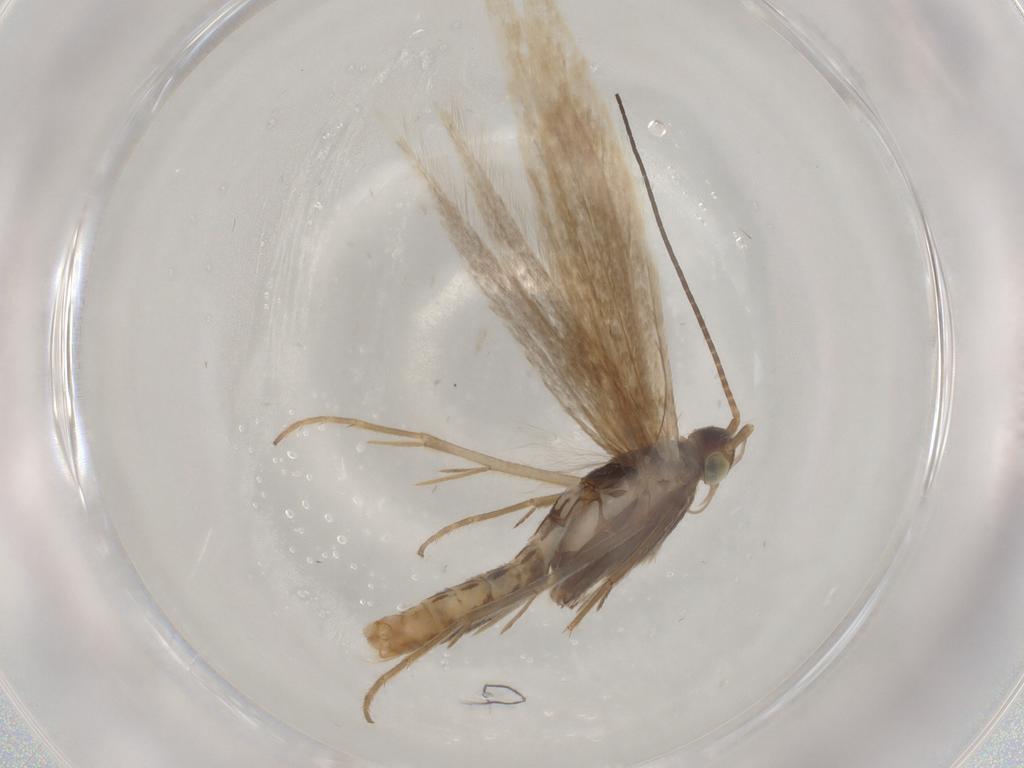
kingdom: Animalia
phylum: Arthropoda
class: Insecta
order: Lepidoptera
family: Coleophoridae
